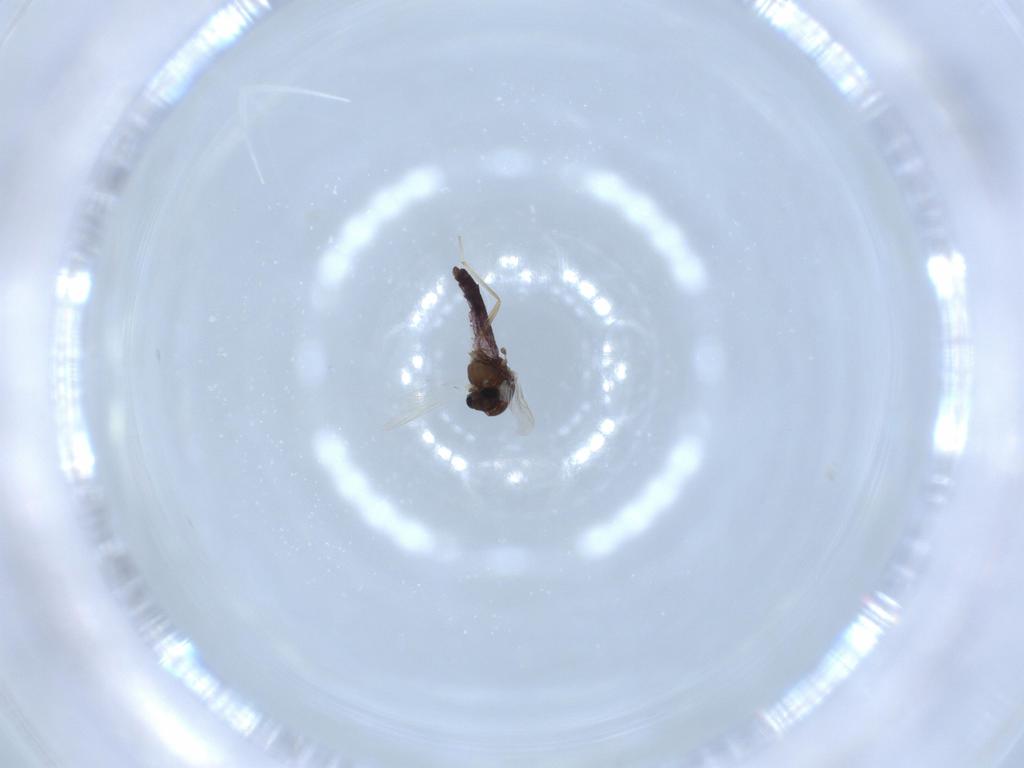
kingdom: Animalia
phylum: Arthropoda
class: Insecta
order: Diptera
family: Chironomidae
